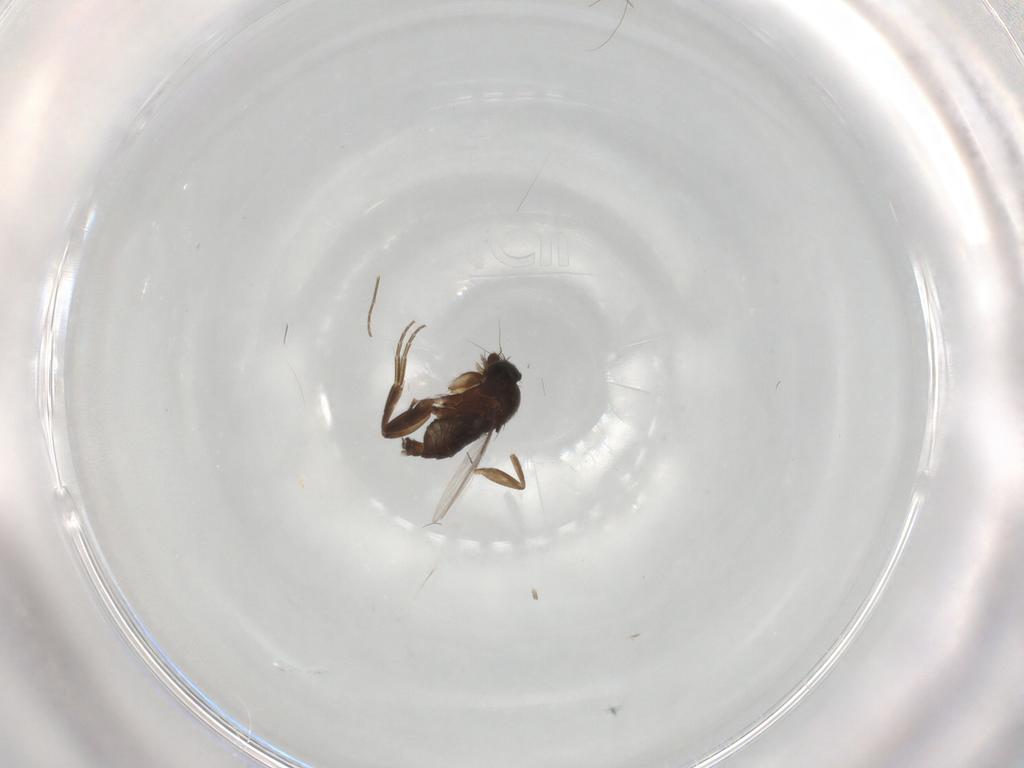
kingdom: Animalia
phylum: Arthropoda
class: Insecta
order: Diptera
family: Phoridae
